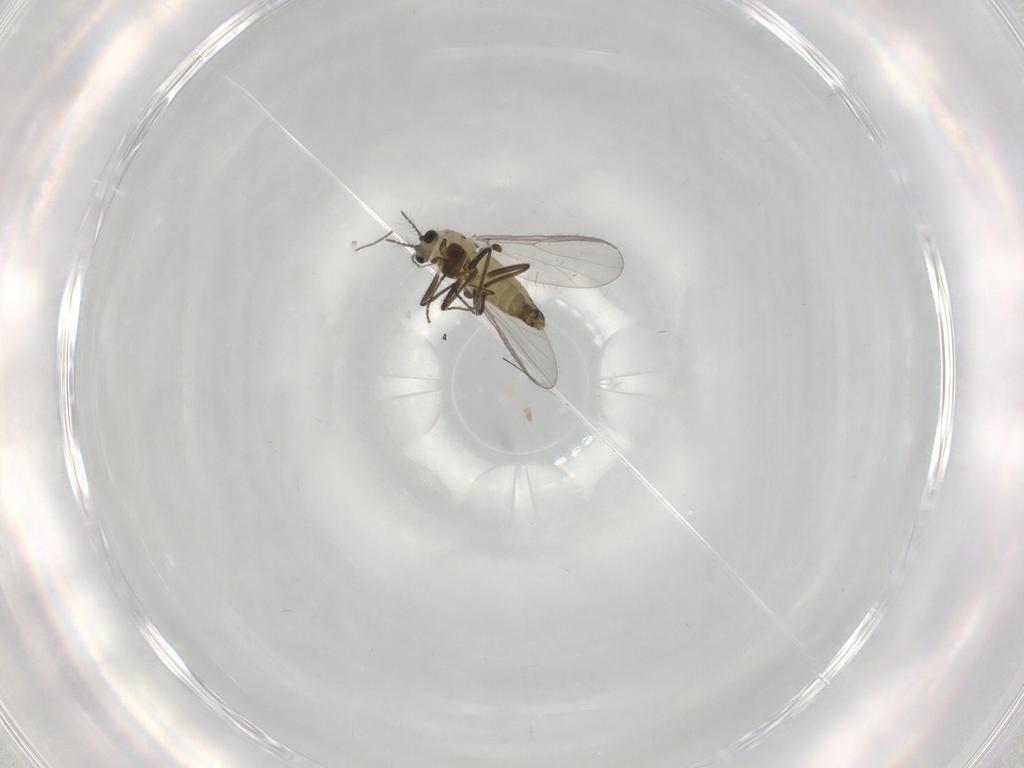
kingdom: Animalia
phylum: Arthropoda
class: Insecta
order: Diptera
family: Chironomidae
